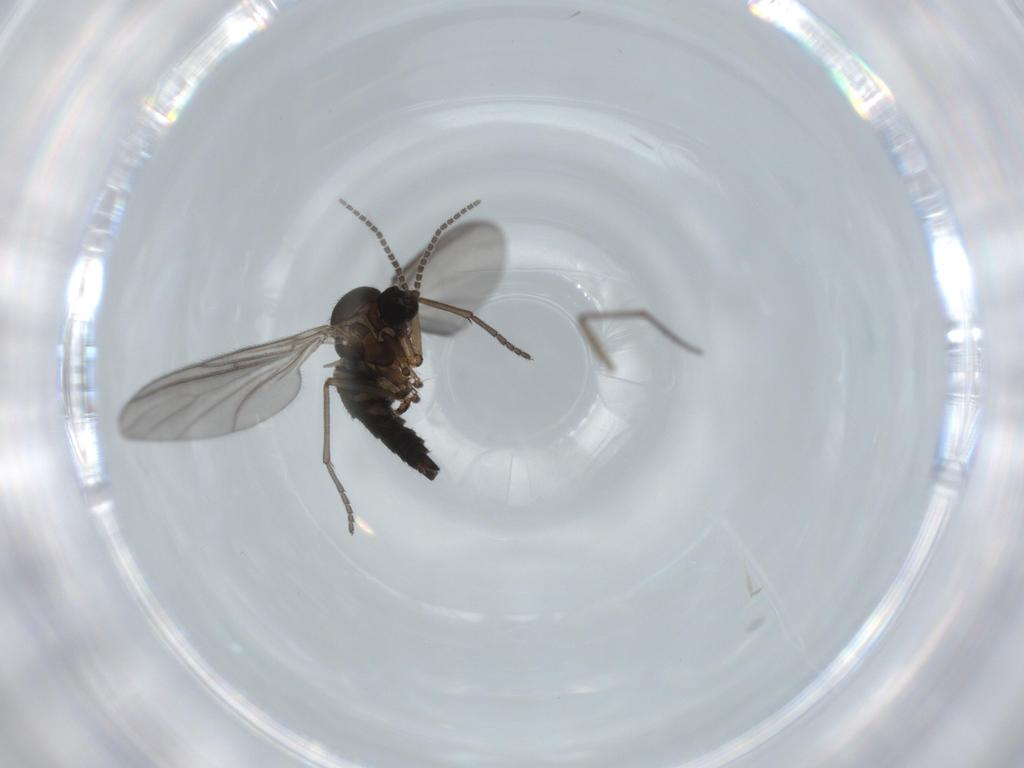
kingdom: Animalia
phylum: Arthropoda
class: Insecta
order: Diptera
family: Sciaridae
